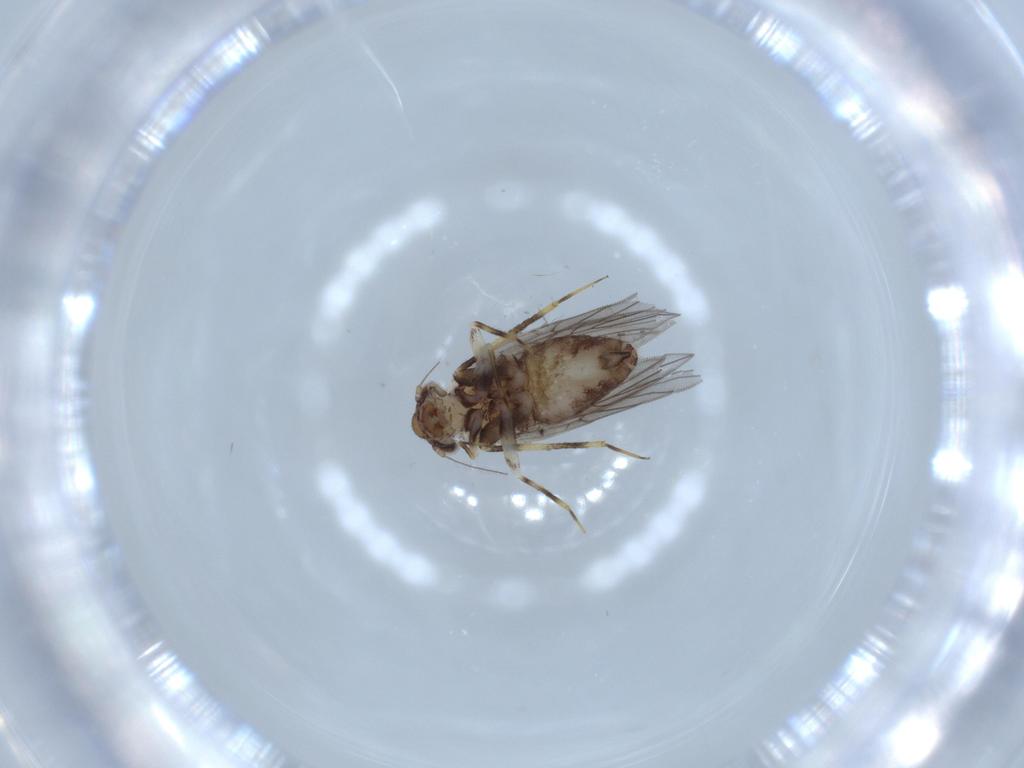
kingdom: Animalia
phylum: Arthropoda
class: Insecta
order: Psocodea
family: Lepidopsocidae
